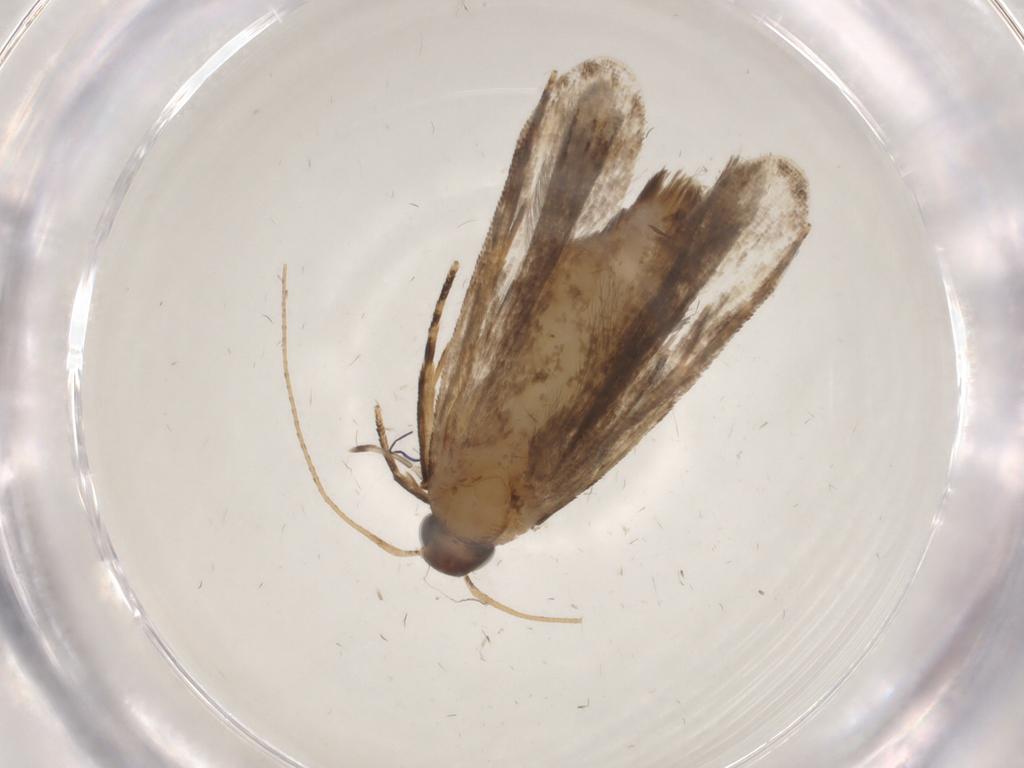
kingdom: Animalia
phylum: Arthropoda
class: Insecta
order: Lepidoptera
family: Gelechiidae
